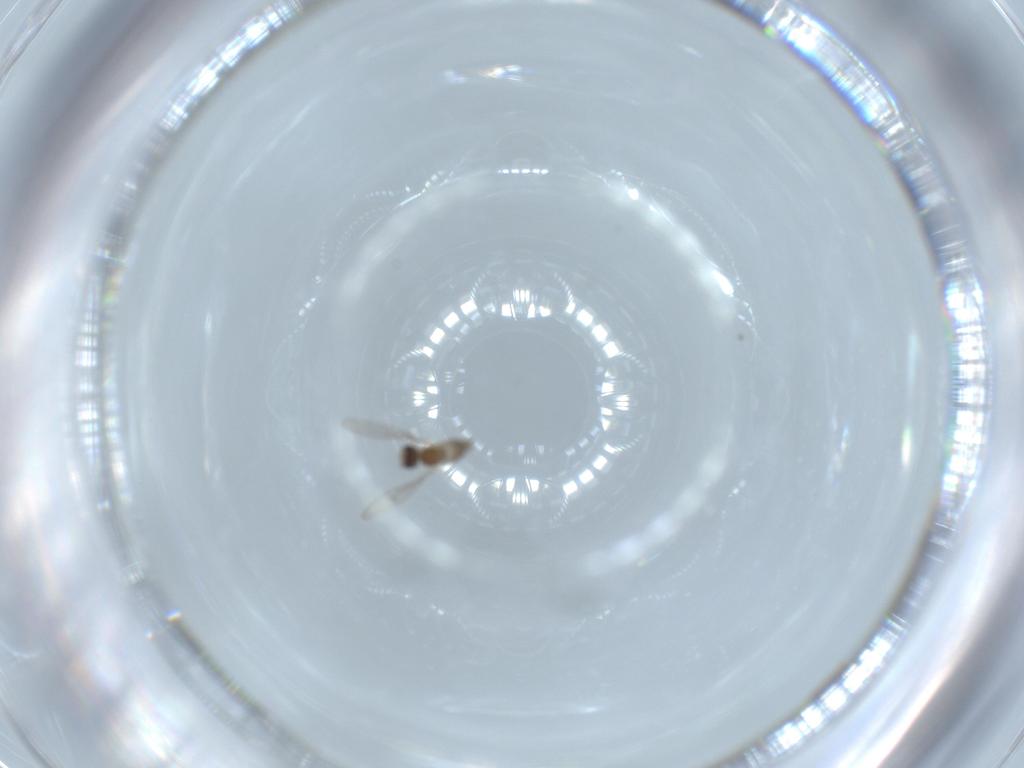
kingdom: Animalia
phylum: Arthropoda
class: Insecta
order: Diptera
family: Cecidomyiidae
